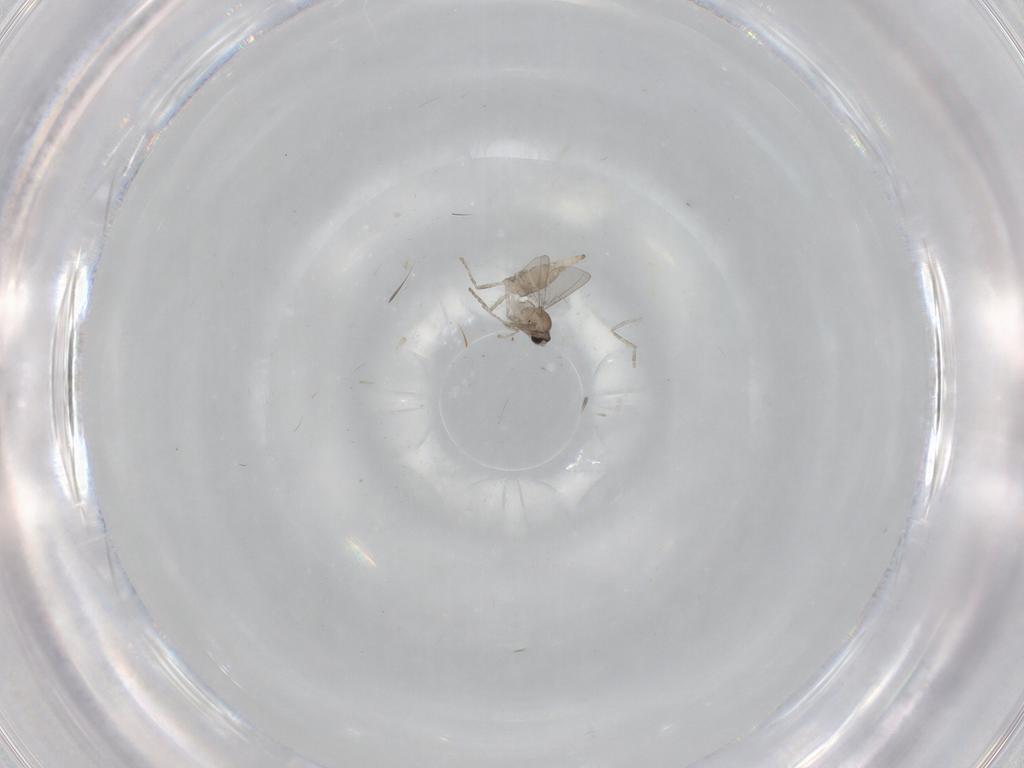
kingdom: Animalia
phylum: Arthropoda
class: Insecta
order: Diptera
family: Cecidomyiidae
